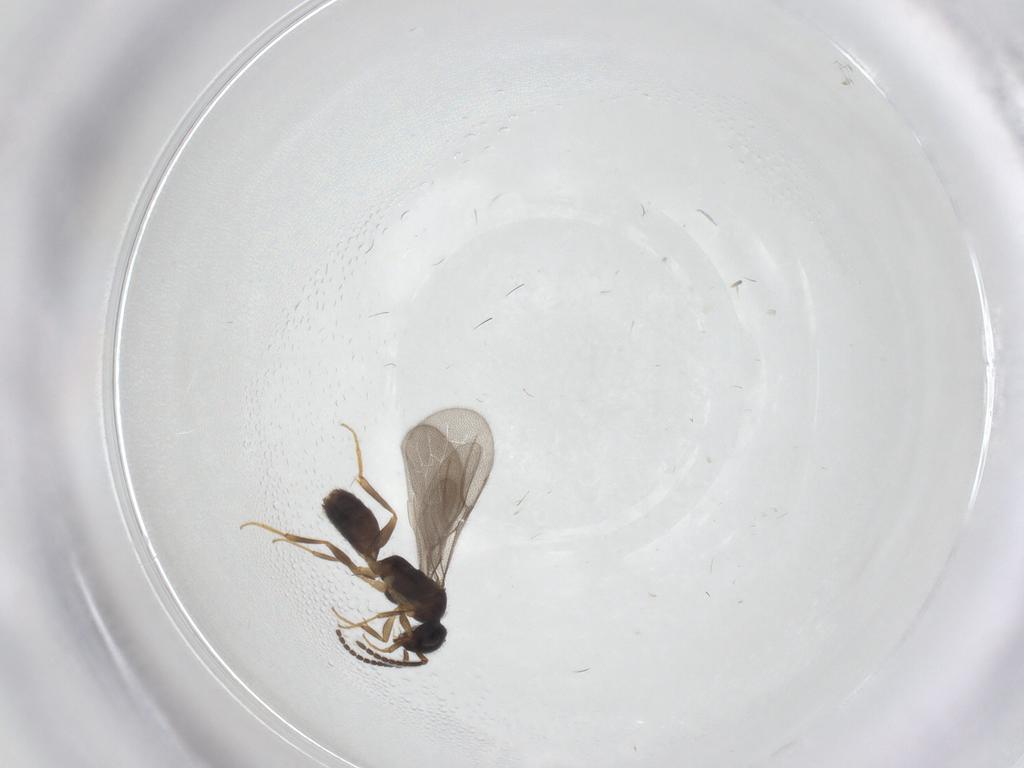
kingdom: Animalia
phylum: Arthropoda
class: Insecta
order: Hymenoptera
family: Bethylidae
